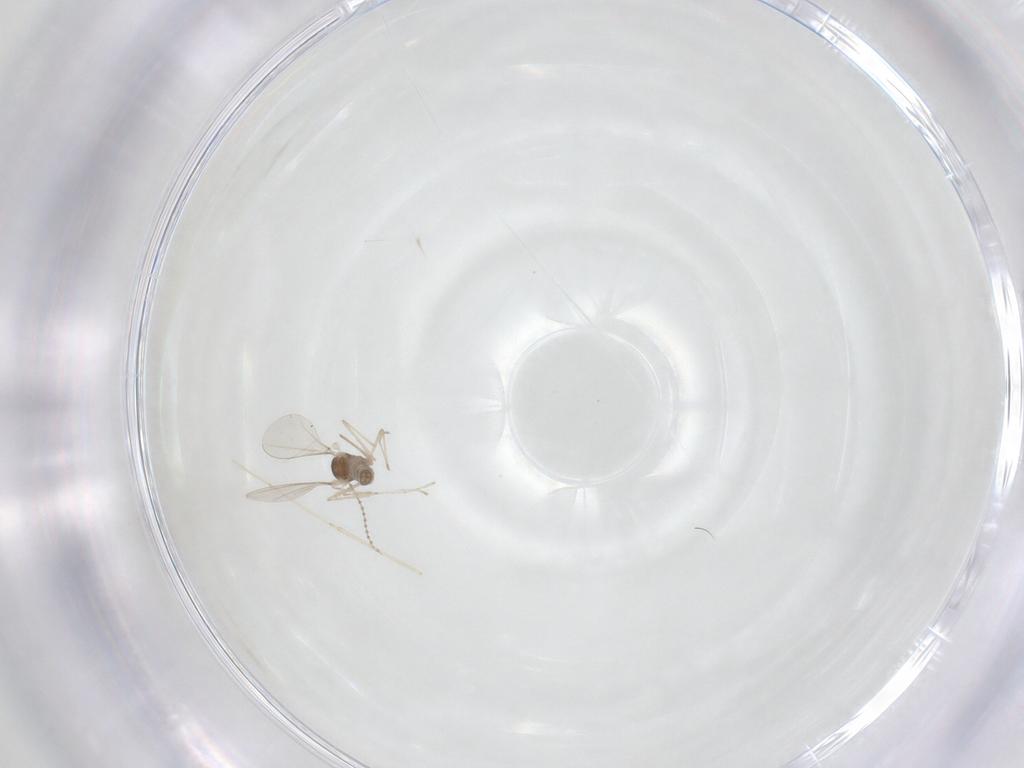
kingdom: Animalia
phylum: Arthropoda
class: Insecta
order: Diptera
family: Cecidomyiidae
